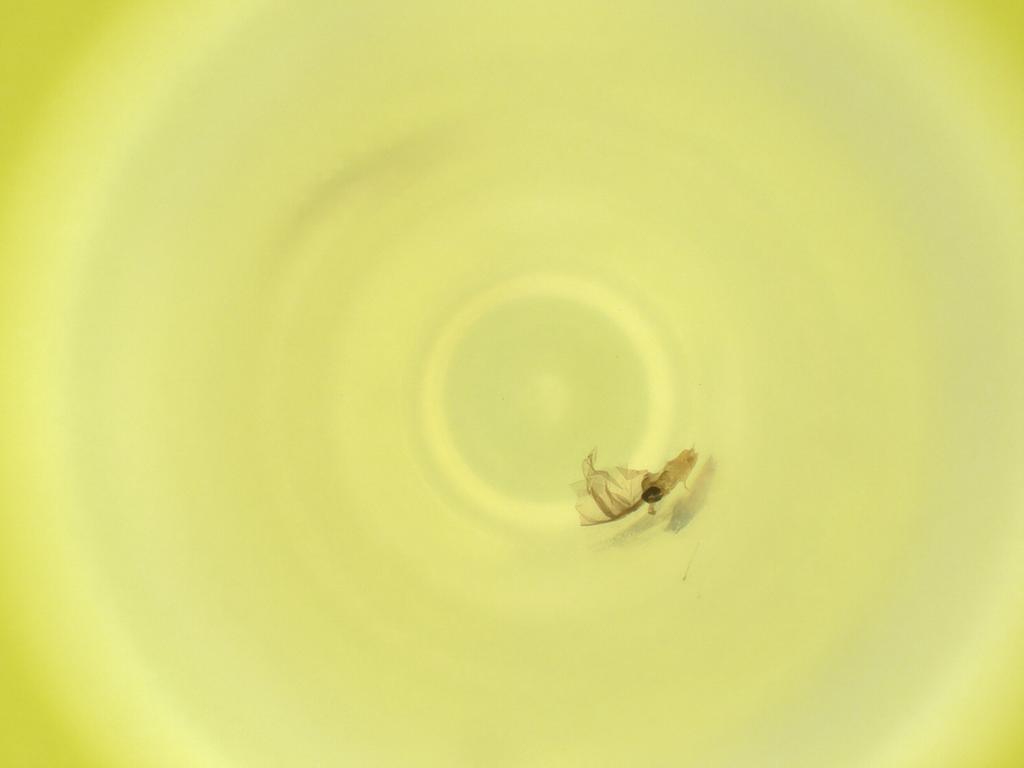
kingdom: Animalia
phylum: Arthropoda
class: Insecta
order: Diptera
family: Cecidomyiidae
